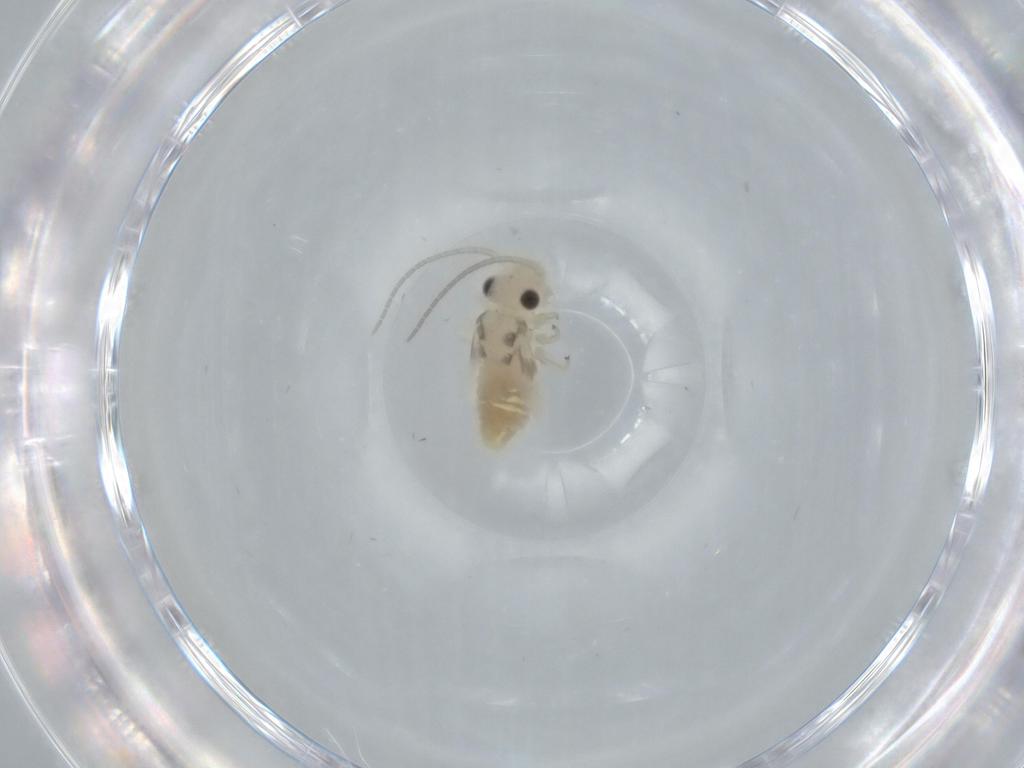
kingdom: Animalia
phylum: Arthropoda
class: Insecta
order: Psocodea
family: Caeciliusidae
